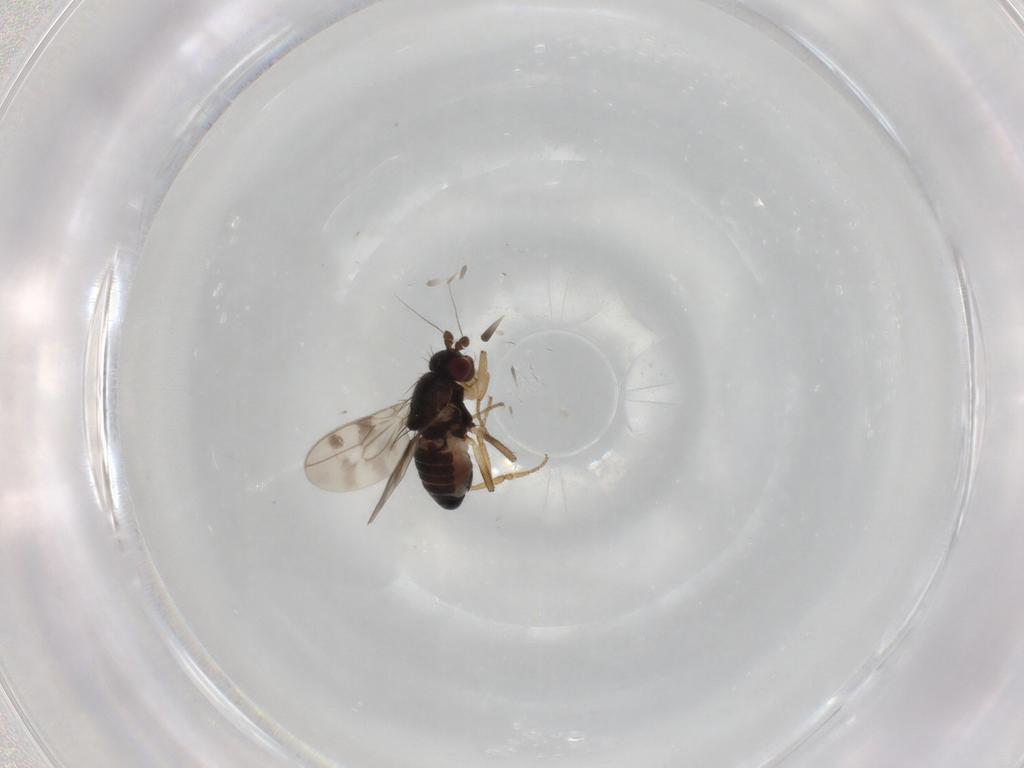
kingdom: Animalia
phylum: Arthropoda
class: Insecta
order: Diptera
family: Sphaeroceridae
